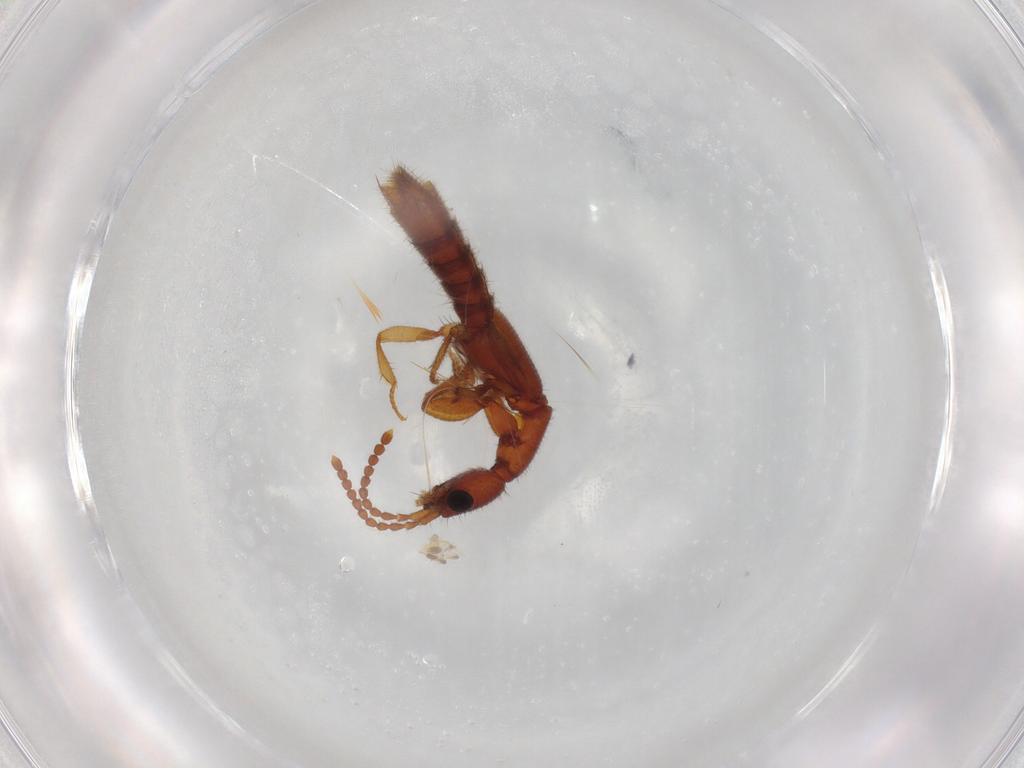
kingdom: Animalia
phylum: Arthropoda
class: Insecta
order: Coleoptera
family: Staphylinidae
